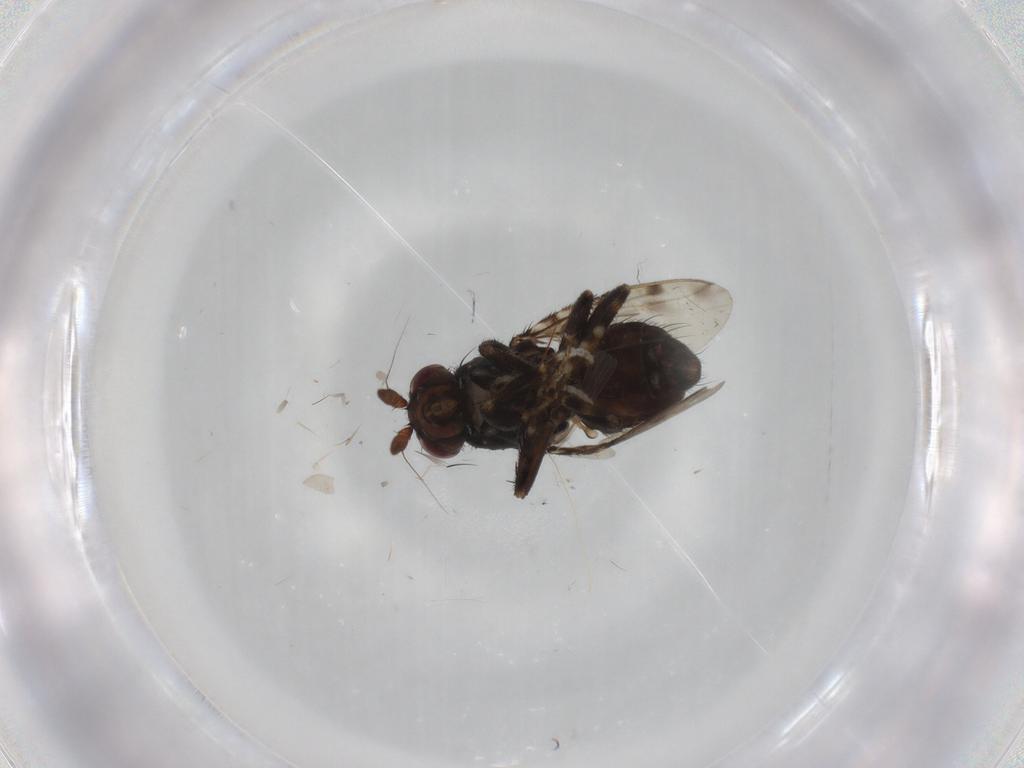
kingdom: Animalia
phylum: Arthropoda
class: Insecta
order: Diptera
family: Sphaeroceridae
